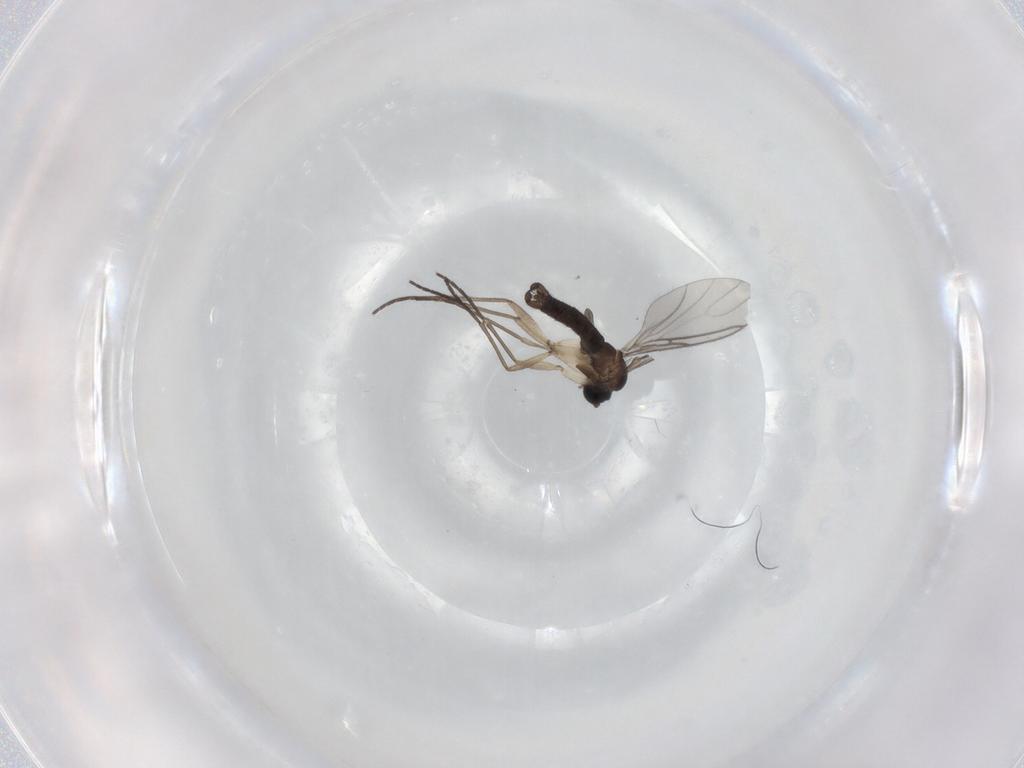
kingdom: Animalia
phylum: Arthropoda
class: Insecta
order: Diptera
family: Sciaridae
